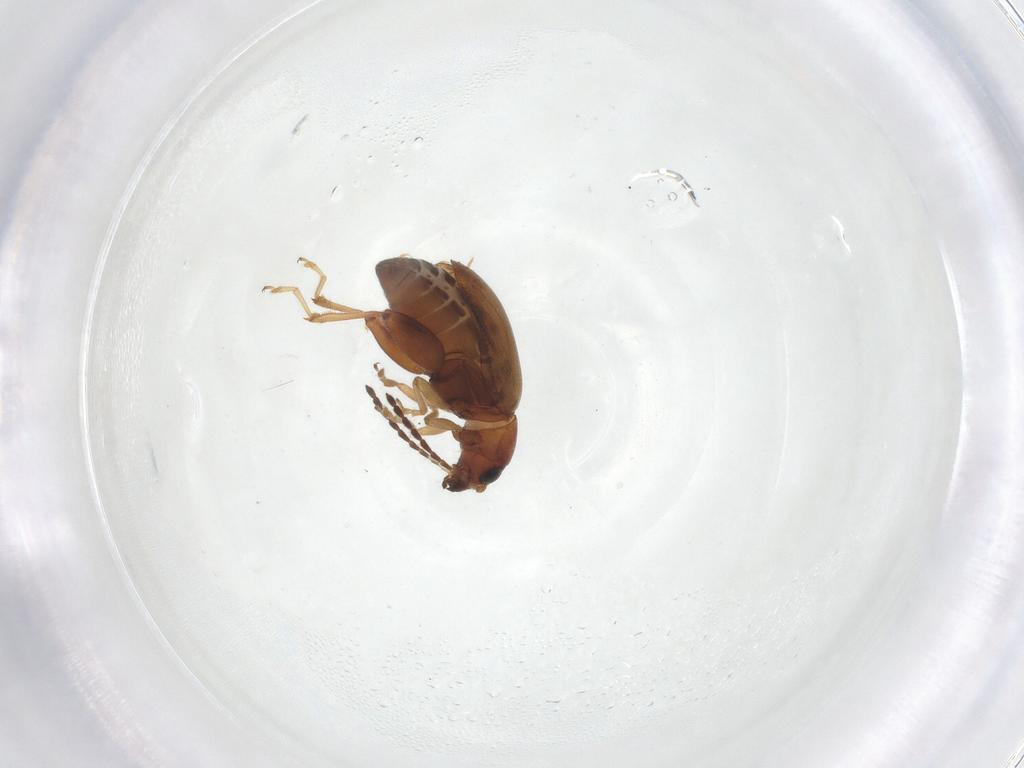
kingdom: Animalia
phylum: Arthropoda
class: Insecta
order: Coleoptera
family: Chrysomelidae
